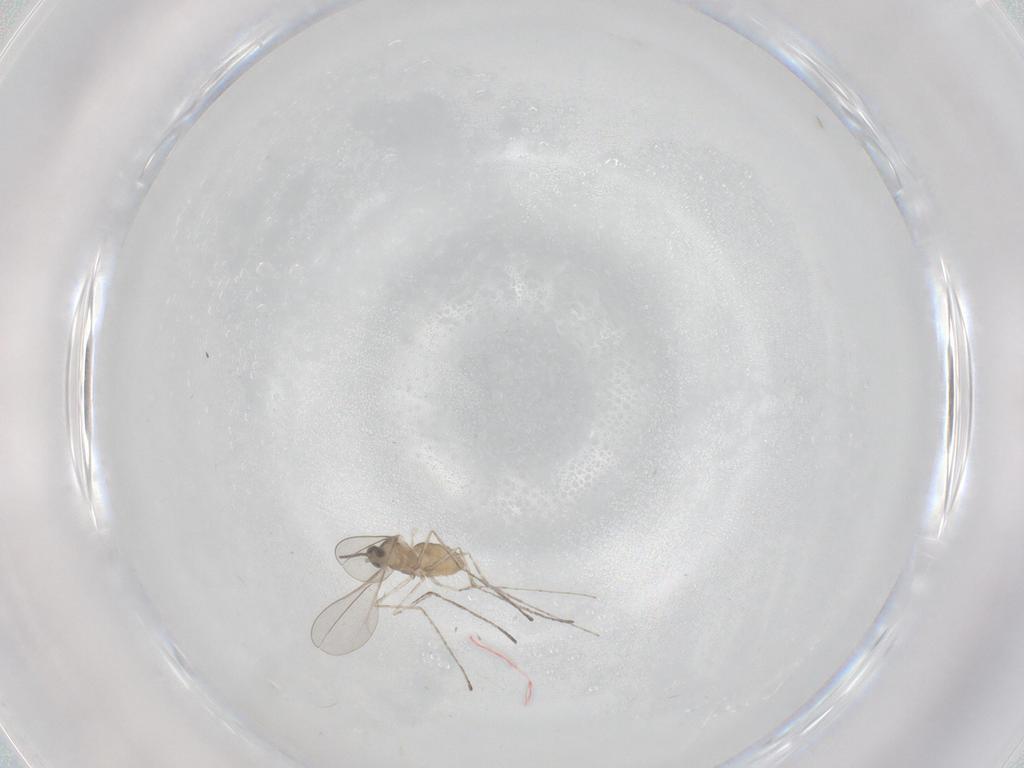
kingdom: Animalia
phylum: Arthropoda
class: Insecta
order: Diptera
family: Cecidomyiidae
